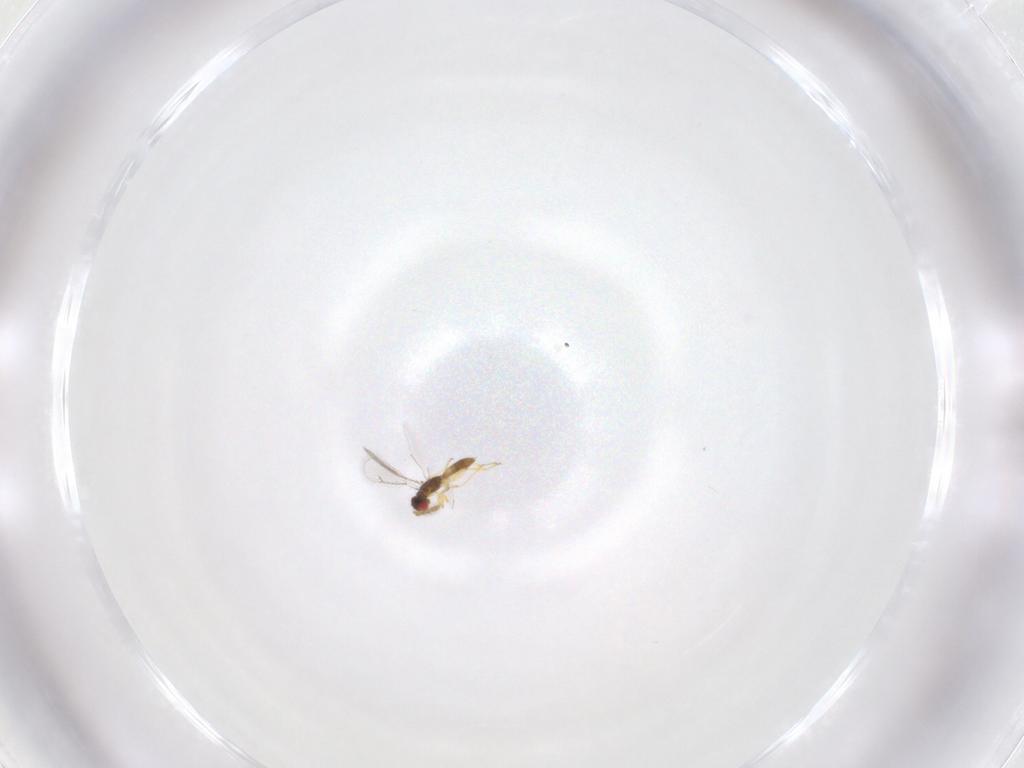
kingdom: Animalia
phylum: Arthropoda
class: Insecta
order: Hymenoptera
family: Eulophidae
